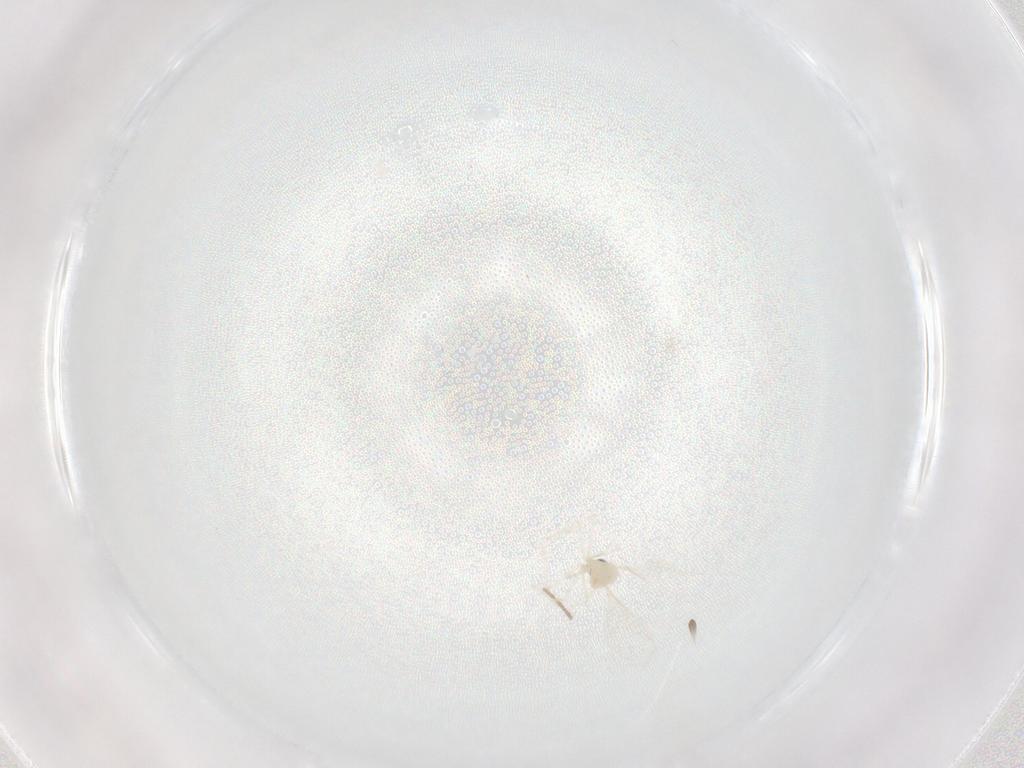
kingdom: Animalia
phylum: Arthropoda
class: Insecta
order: Diptera
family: Cecidomyiidae
